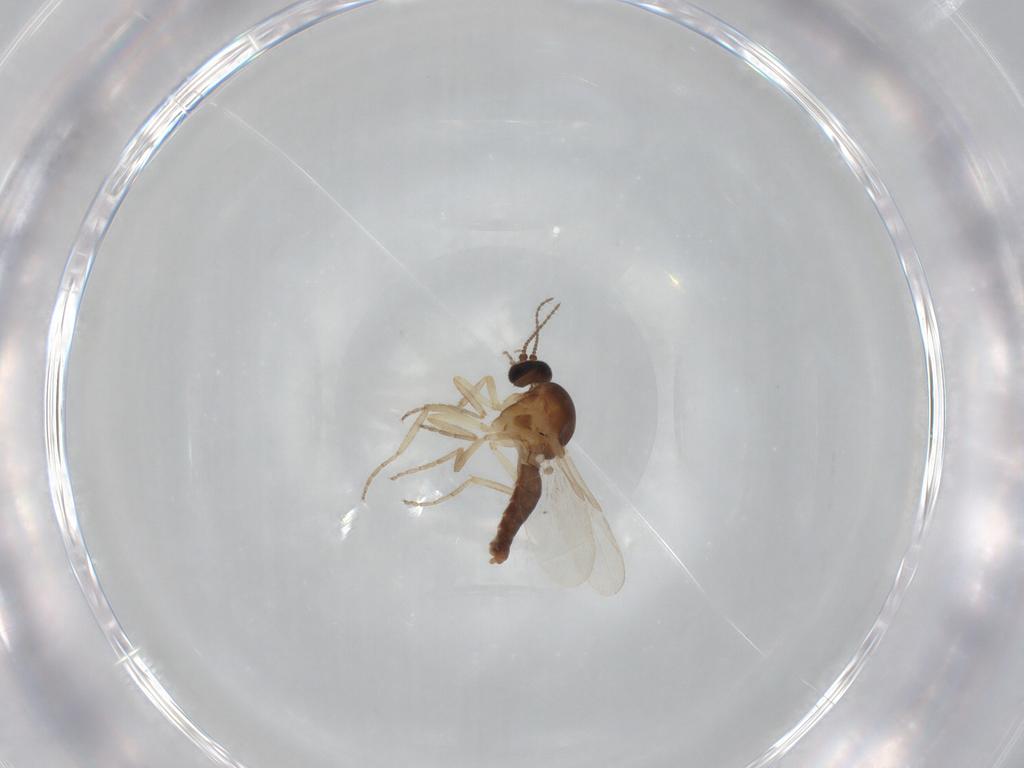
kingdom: Animalia
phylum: Arthropoda
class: Insecta
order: Diptera
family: Ceratopogonidae
